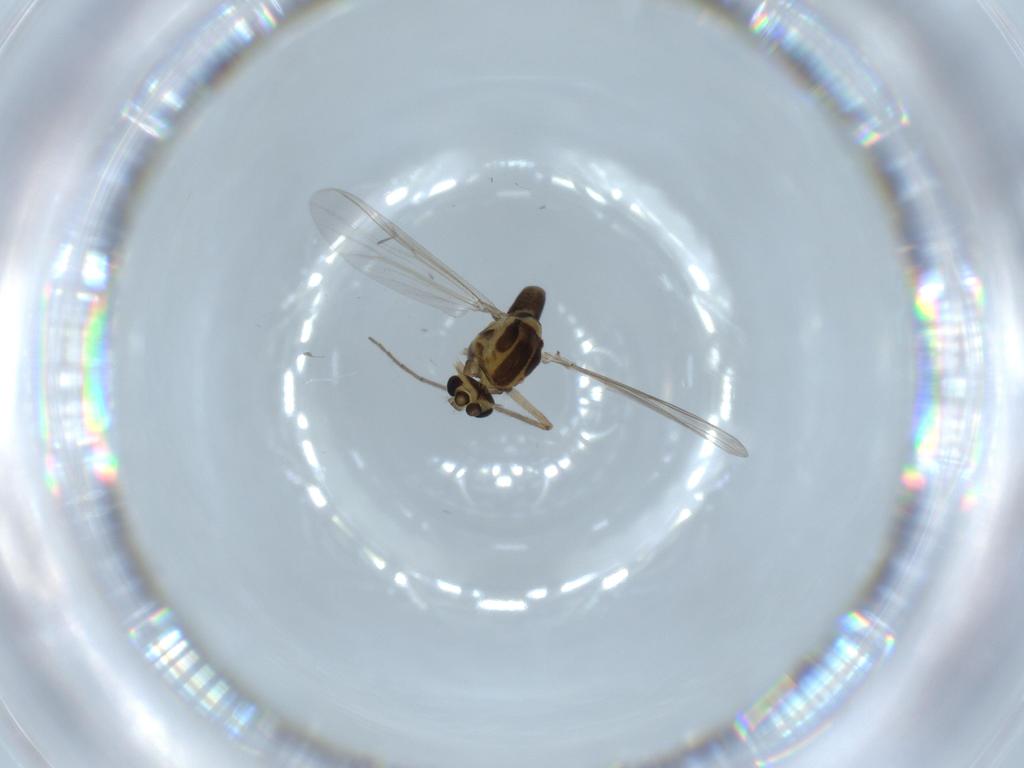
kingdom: Animalia
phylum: Arthropoda
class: Insecta
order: Diptera
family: Chironomidae
